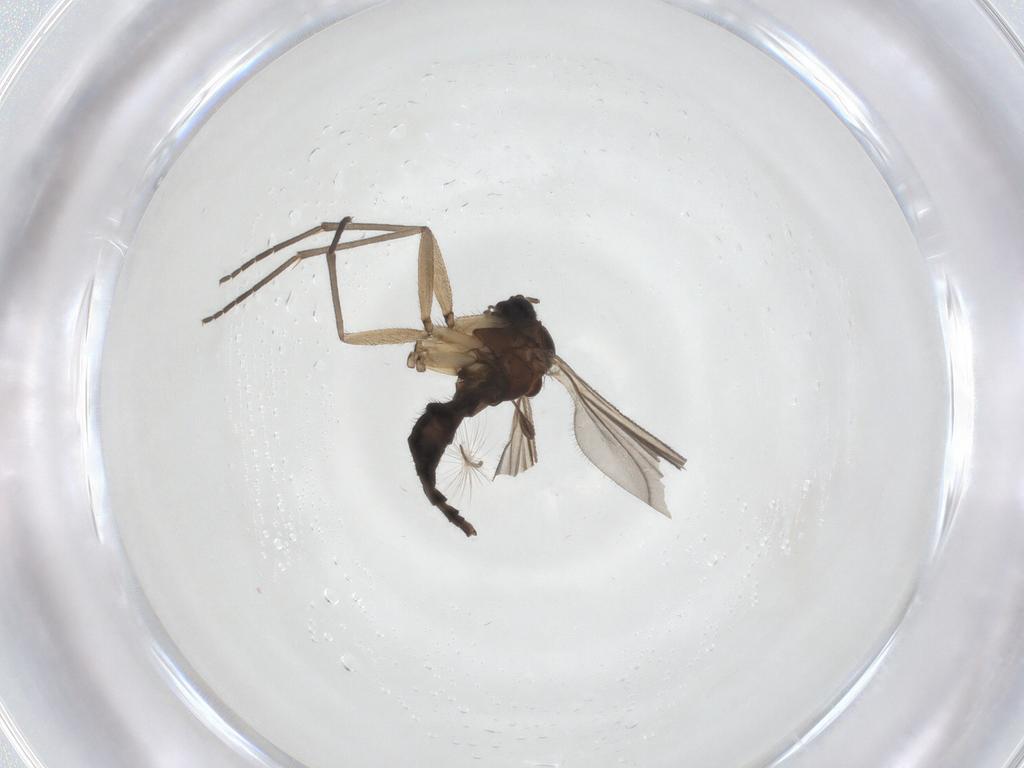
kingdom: Animalia
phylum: Arthropoda
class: Insecta
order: Diptera
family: Sciaridae
